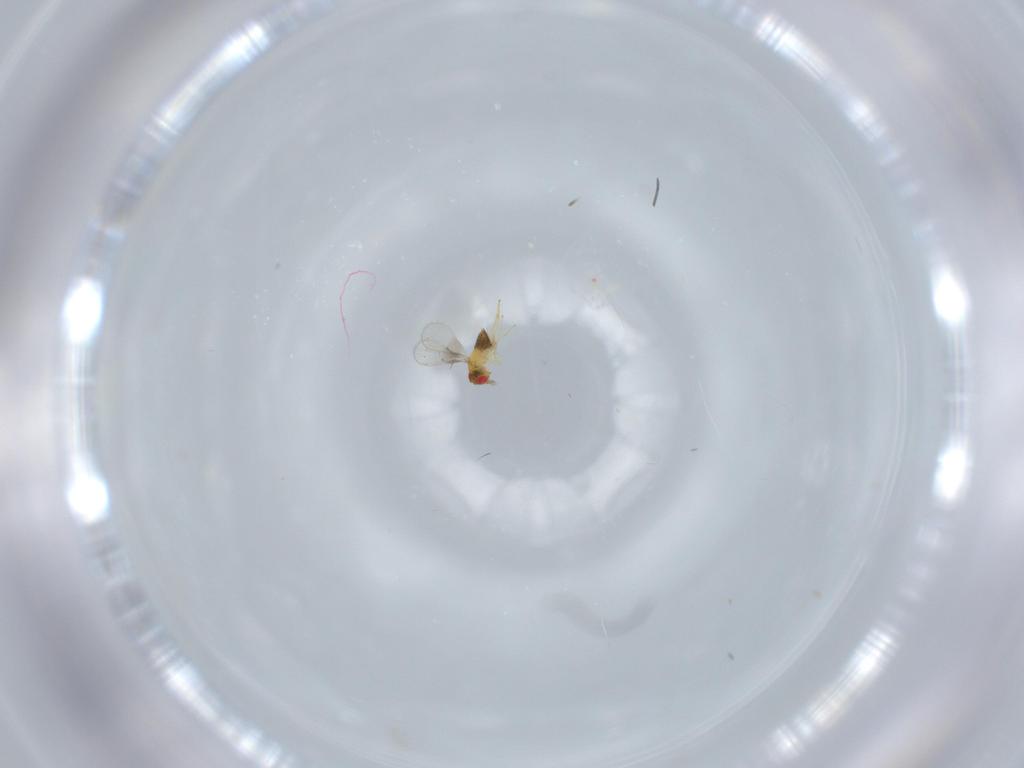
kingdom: Animalia
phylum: Arthropoda
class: Insecta
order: Hymenoptera
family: Trichogrammatidae
